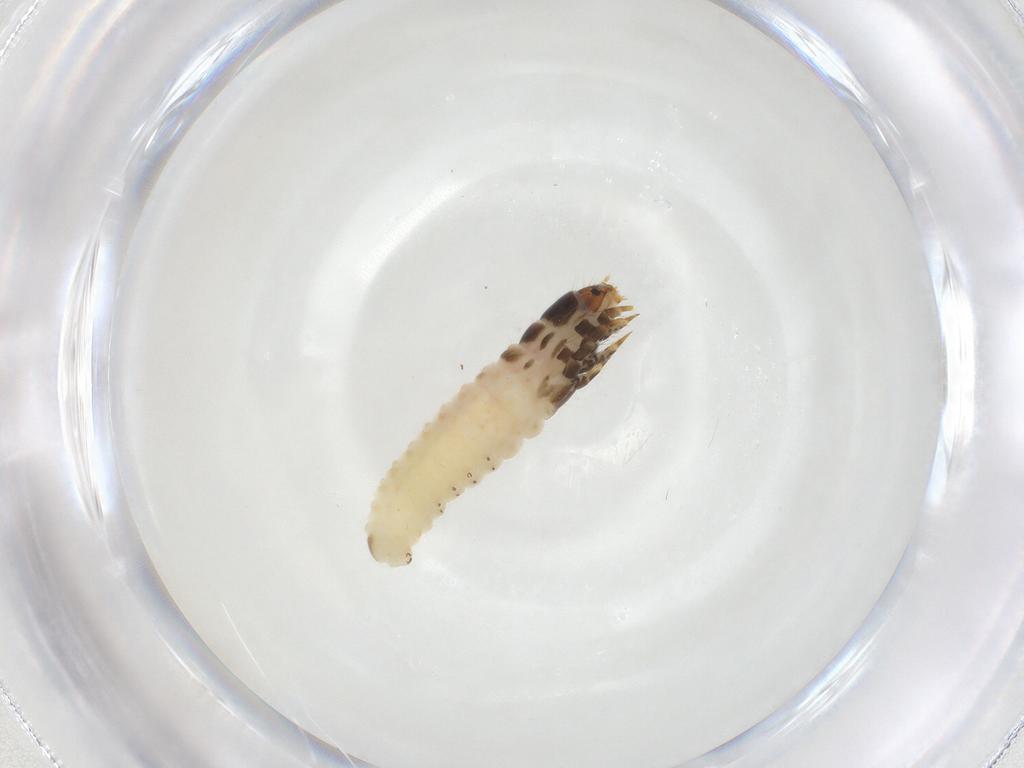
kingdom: Animalia
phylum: Arthropoda
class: Insecta
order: Lepidoptera
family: Psychidae
